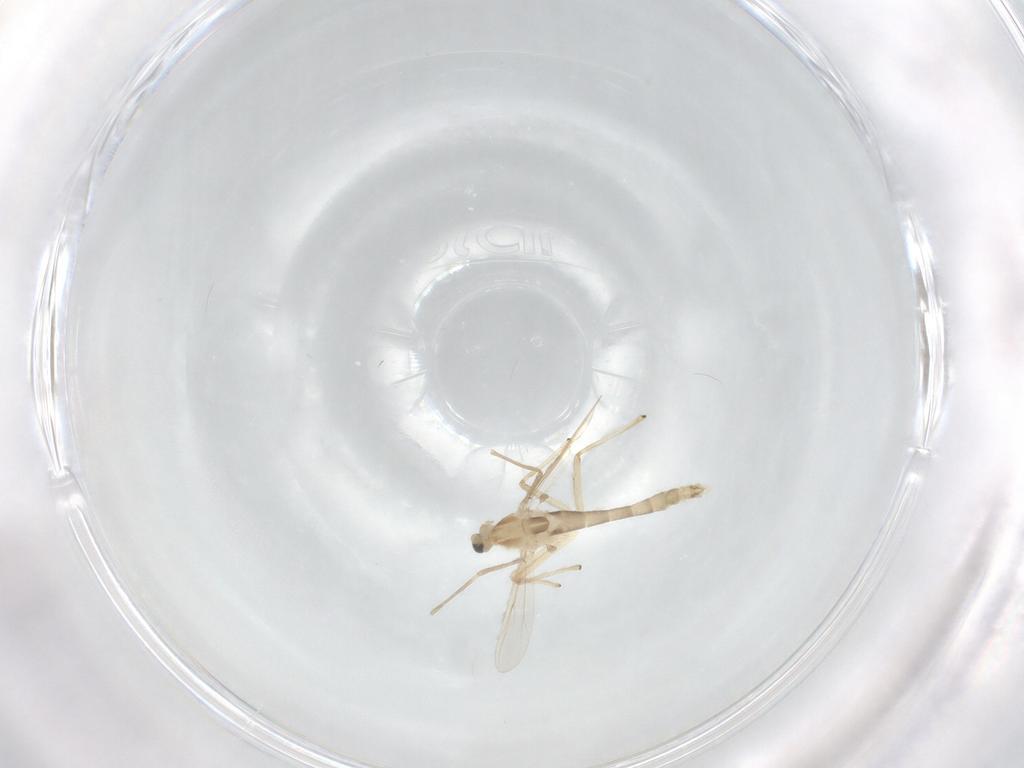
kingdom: Animalia
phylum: Arthropoda
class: Insecta
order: Diptera
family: Chironomidae
